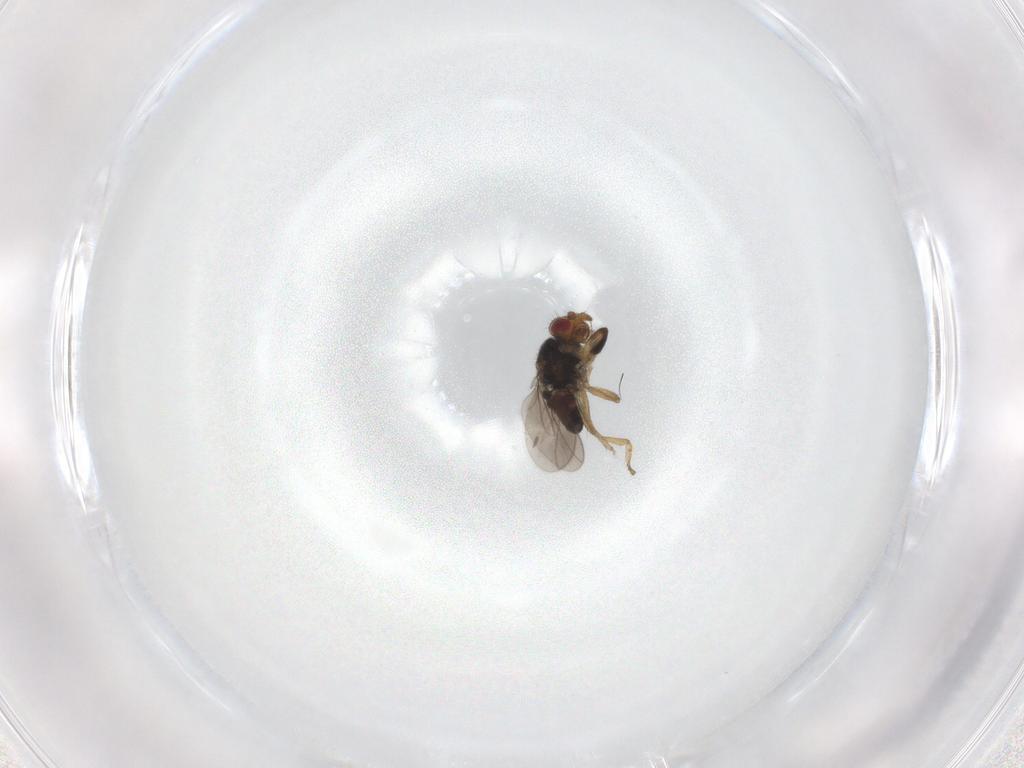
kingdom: Animalia
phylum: Arthropoda
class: Insecta
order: Diptera
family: Sphaeroceridae
